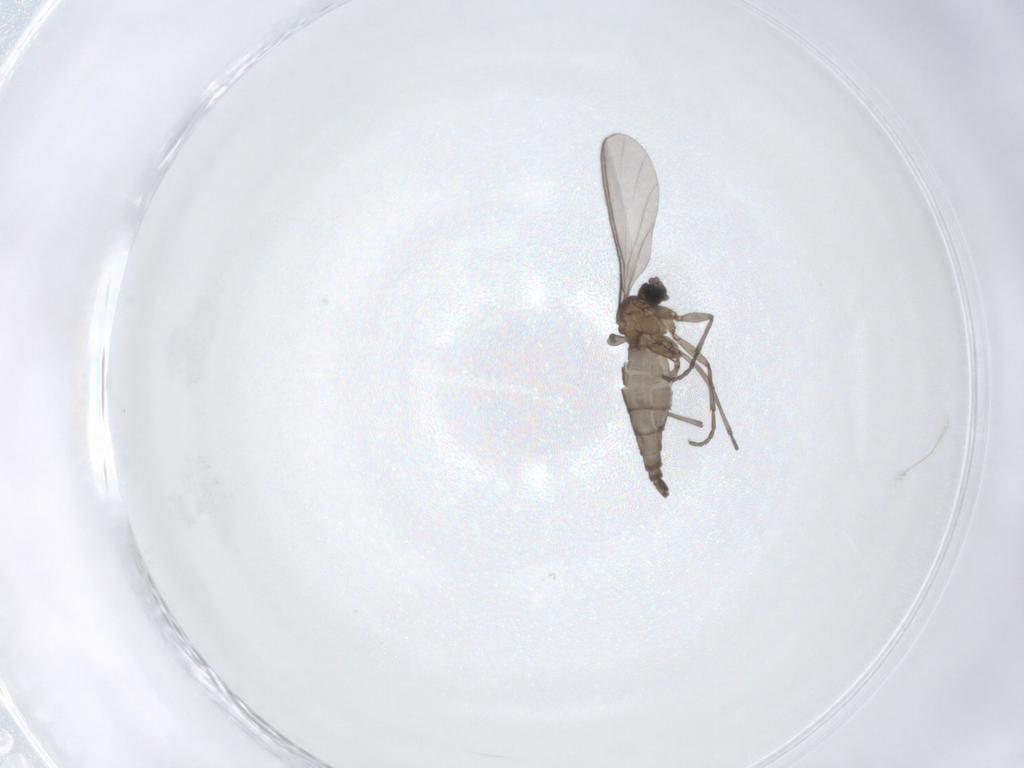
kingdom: Animalia
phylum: Arthropoda
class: Insecta
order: Diptera
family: Sciaridae
